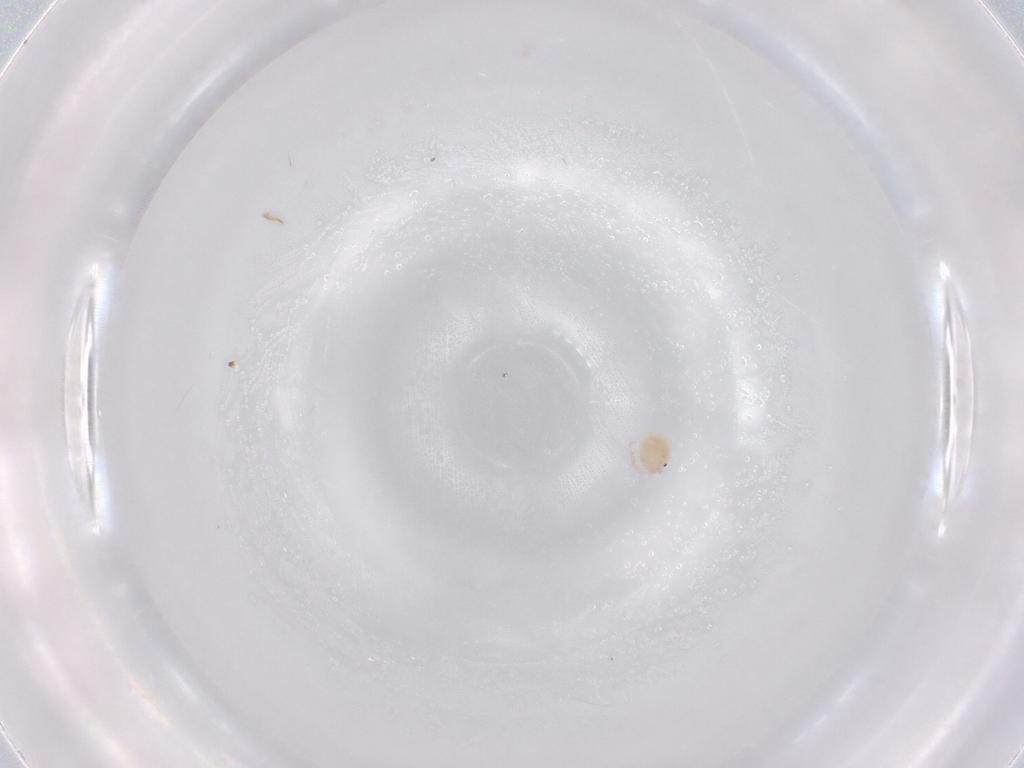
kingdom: Animalia
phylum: Arthropoda
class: Arachnida
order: Trombidiformes
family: Lebertiidae
